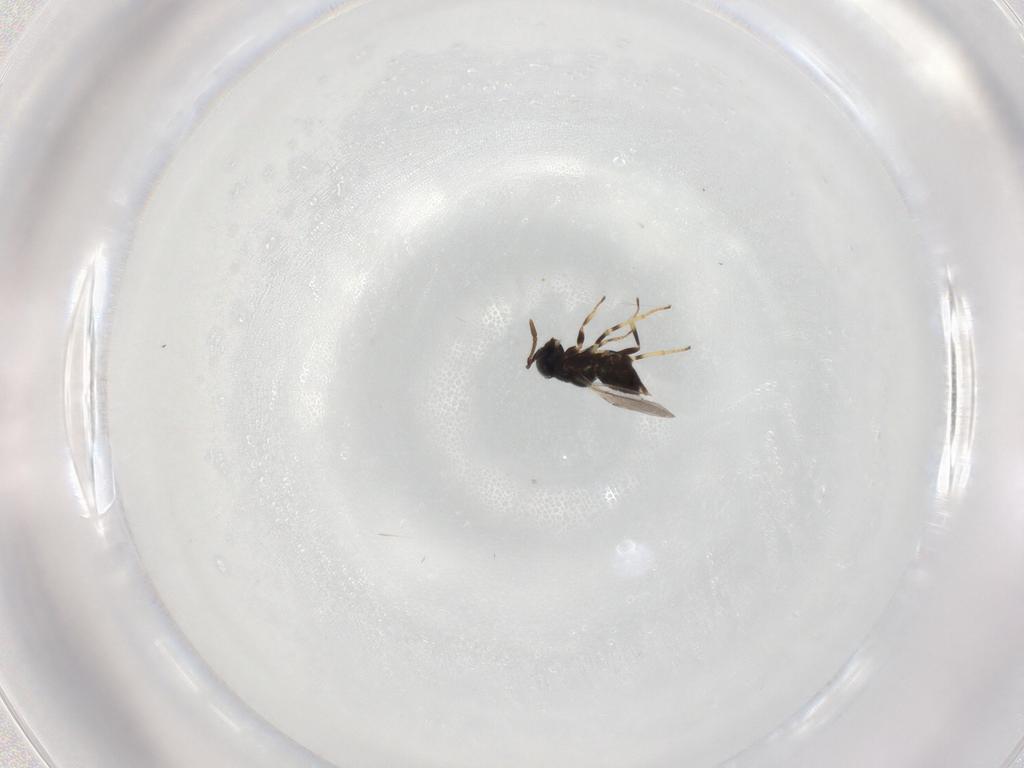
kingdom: Animalia
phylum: Arthropoda
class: Insecta
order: Hymenoptera
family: Encyrtidae
